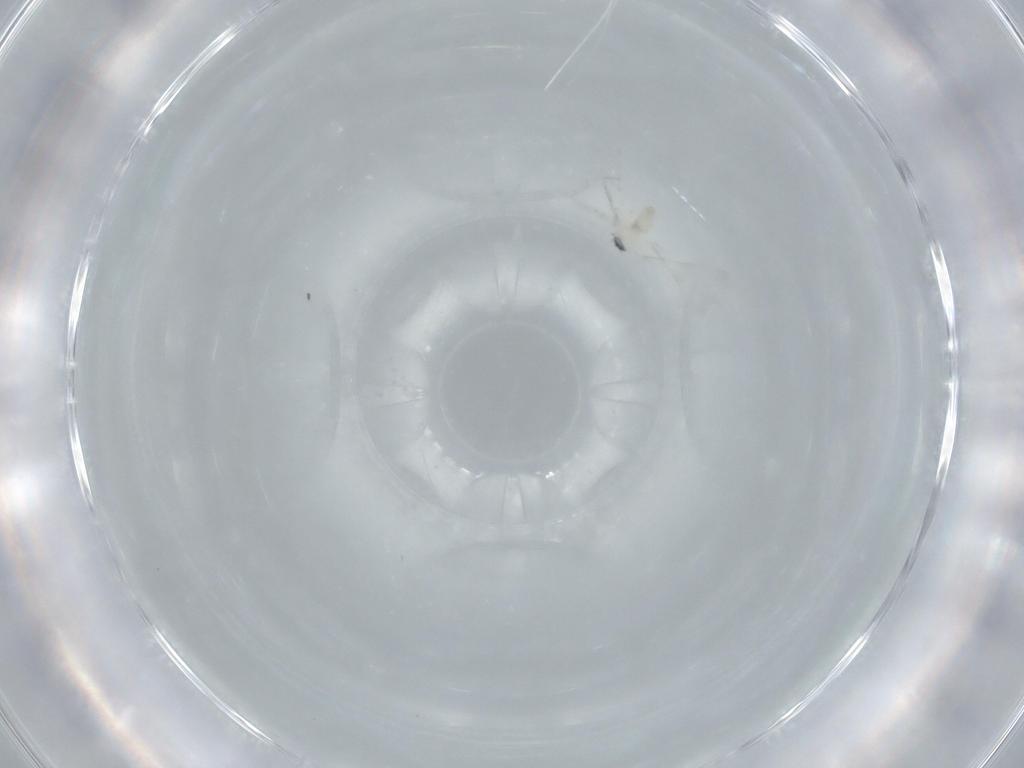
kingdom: Animalia
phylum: Arthropoda
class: Insecta
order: Diptera
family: Cecidomyiidae
